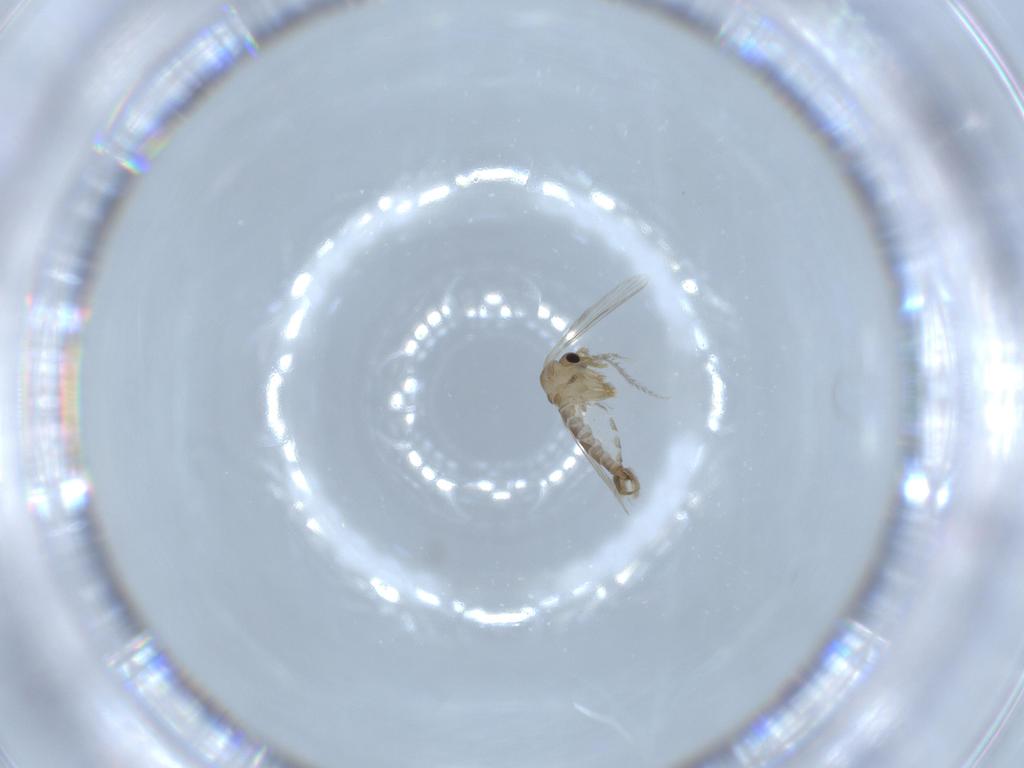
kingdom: Animalia
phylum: Arthropoda
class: Insecta
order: Diptera
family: Psychodidae
